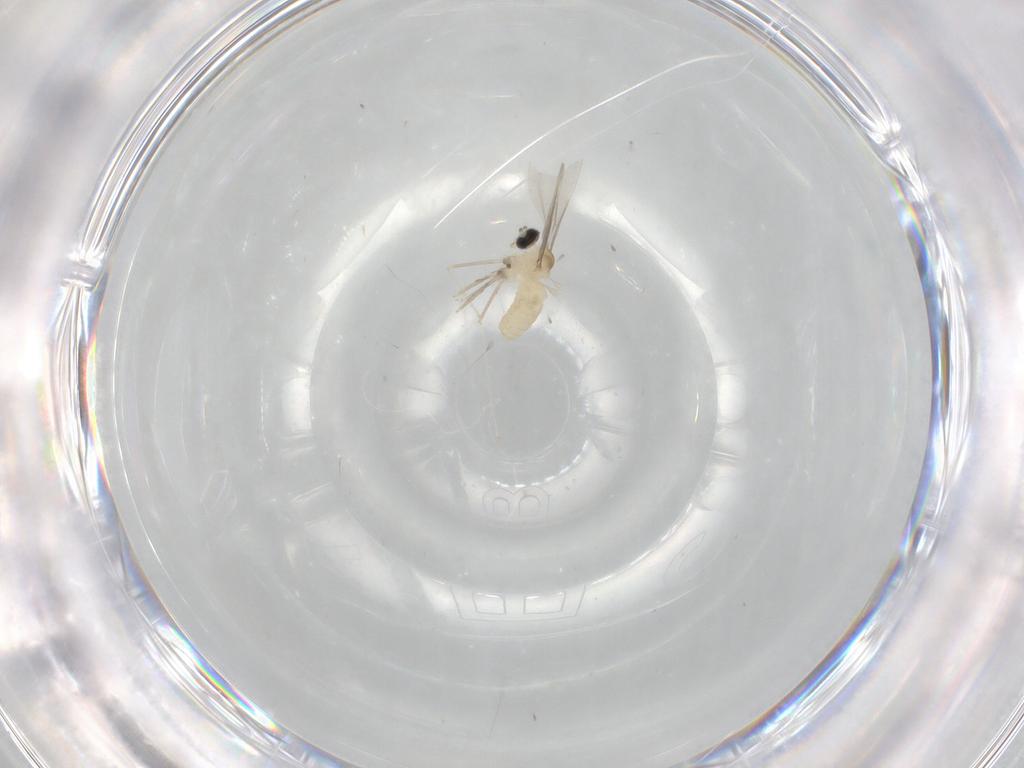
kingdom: Animalia
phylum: Arthropoda
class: Insecta
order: Diptera
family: Cecidomyiidae
